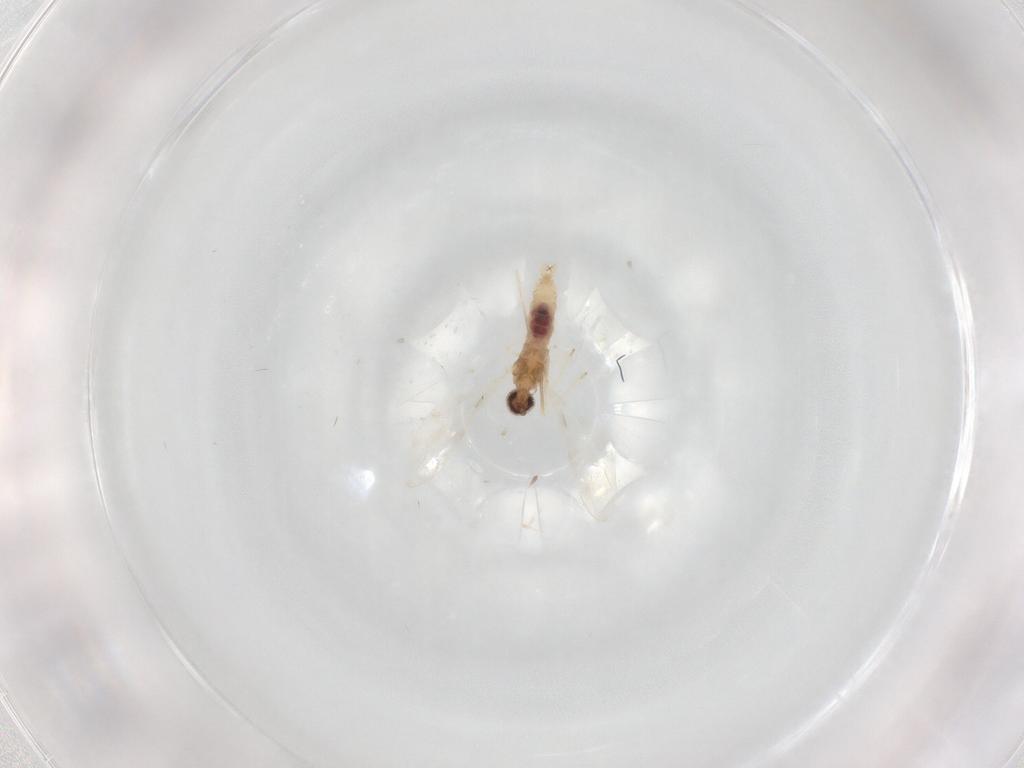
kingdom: Animalia
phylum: Arthropoda
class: Insecta
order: Diptera
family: Cecidomyiidae
